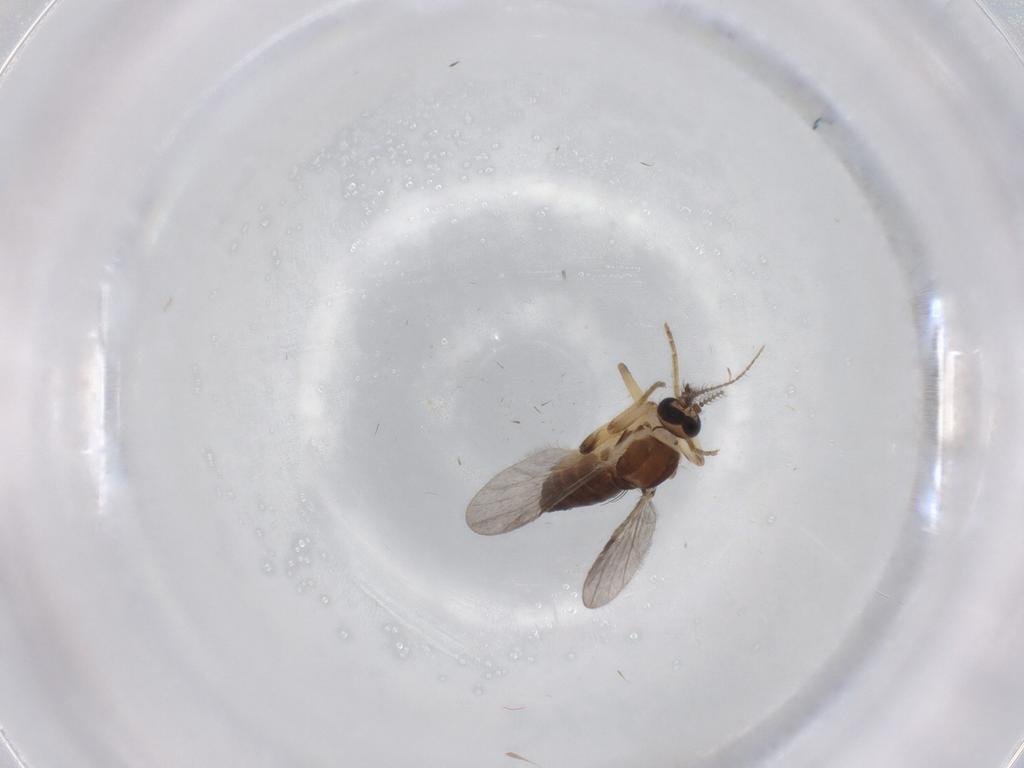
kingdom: Animalia
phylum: Arthropoda
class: Insecta
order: Diptera
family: Ceratopogonidae
